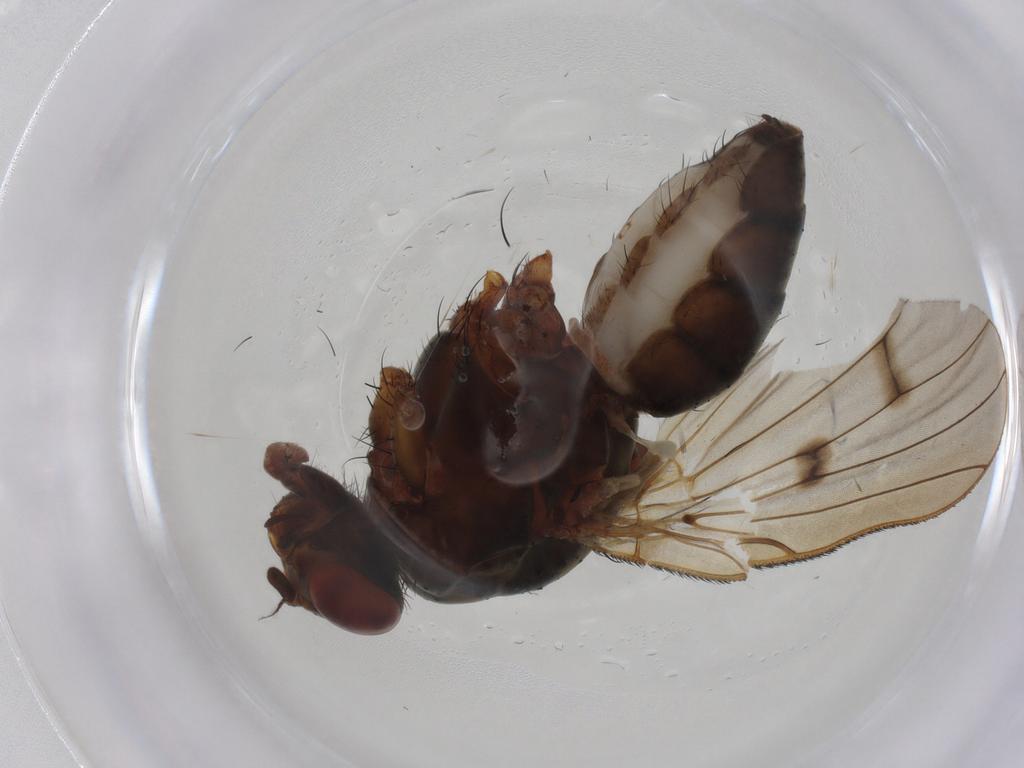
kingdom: Animalia
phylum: Arthropoda
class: Insecta
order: Diptera
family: Anthomyiidae
